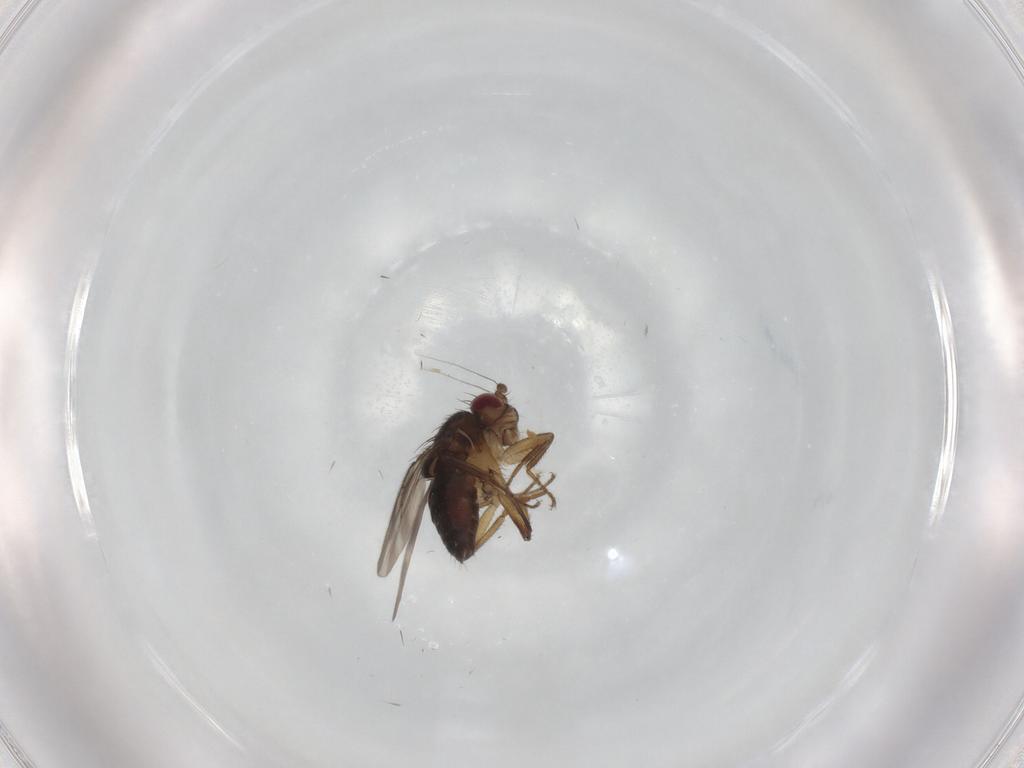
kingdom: Animalia
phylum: Arthropoda
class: Insecta
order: Diptera
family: Sphaeroceridae
